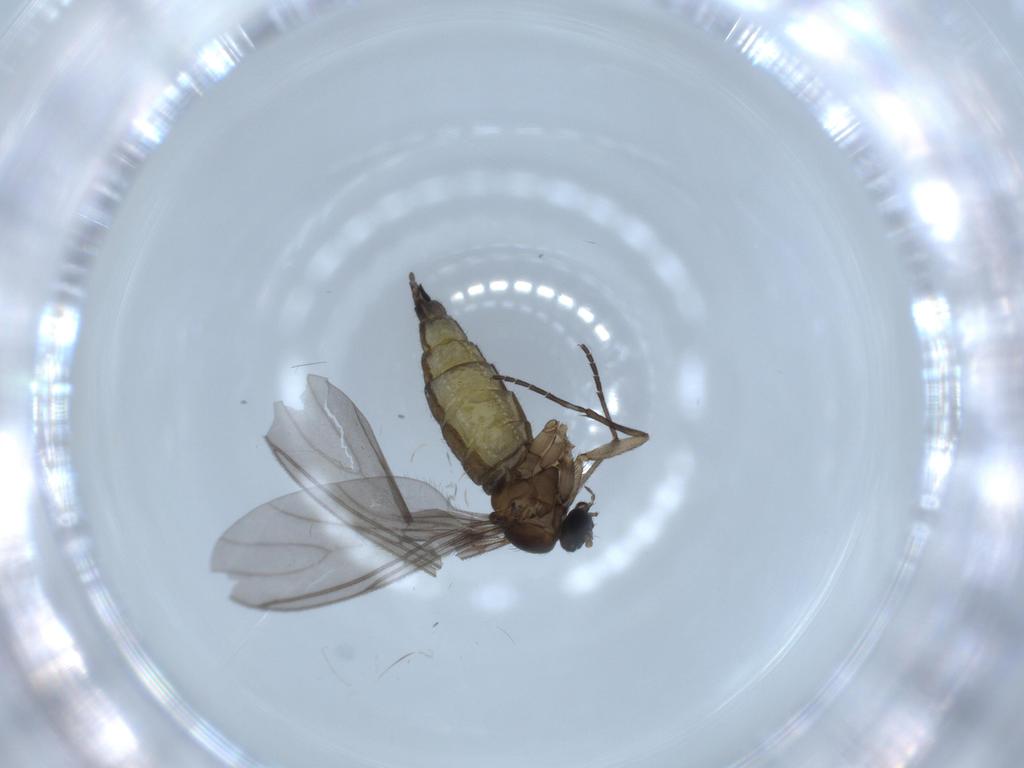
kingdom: Animalia
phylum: Arthropoda
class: Insecta
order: Diptera
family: Sciaridae
